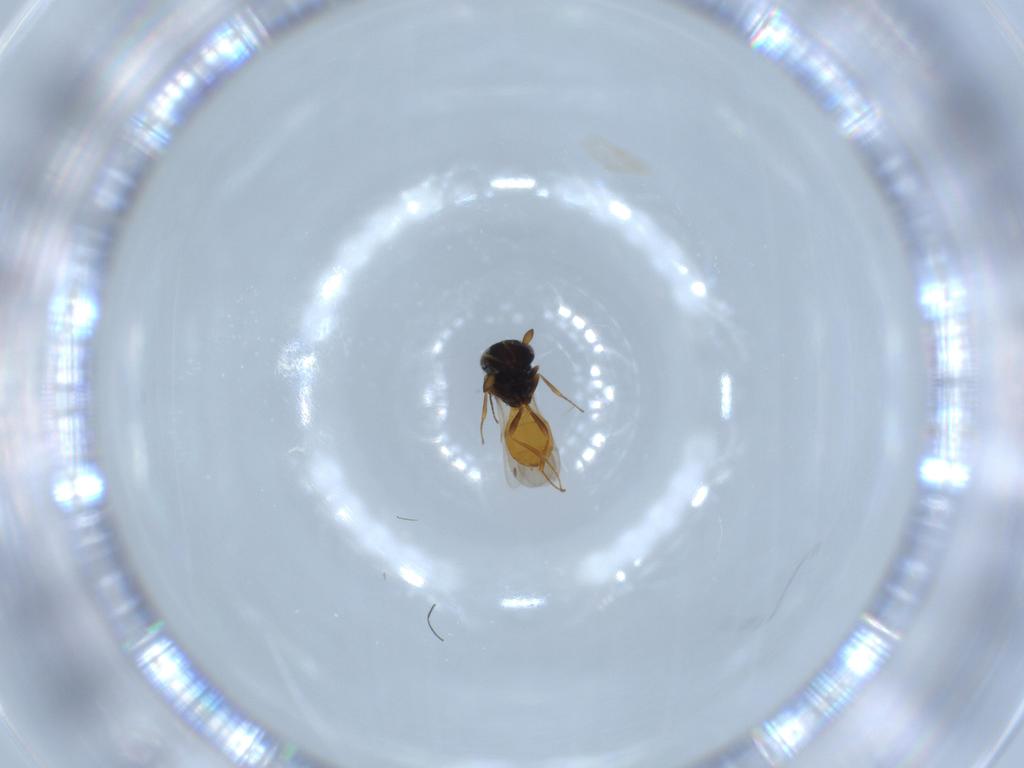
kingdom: Animalia
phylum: Arthropoda
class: Insecta
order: Hymenoptera
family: Scelionidae
